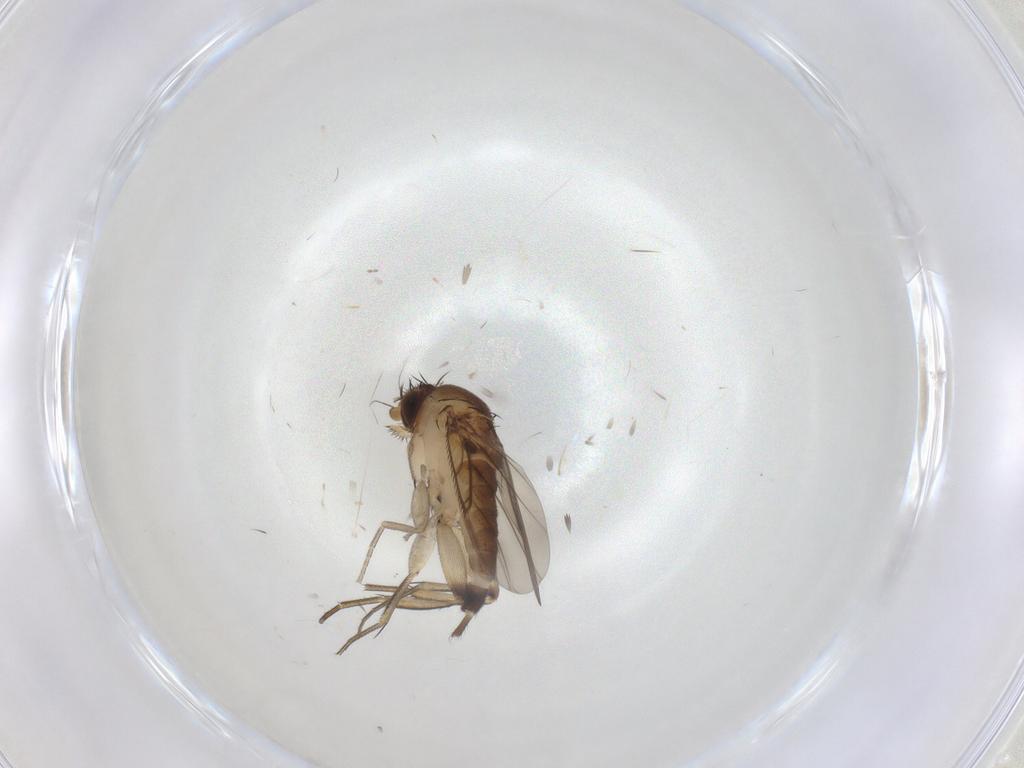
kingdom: Animalia
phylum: Arthropoda
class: Insecta
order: Diptera
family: Phoridae
